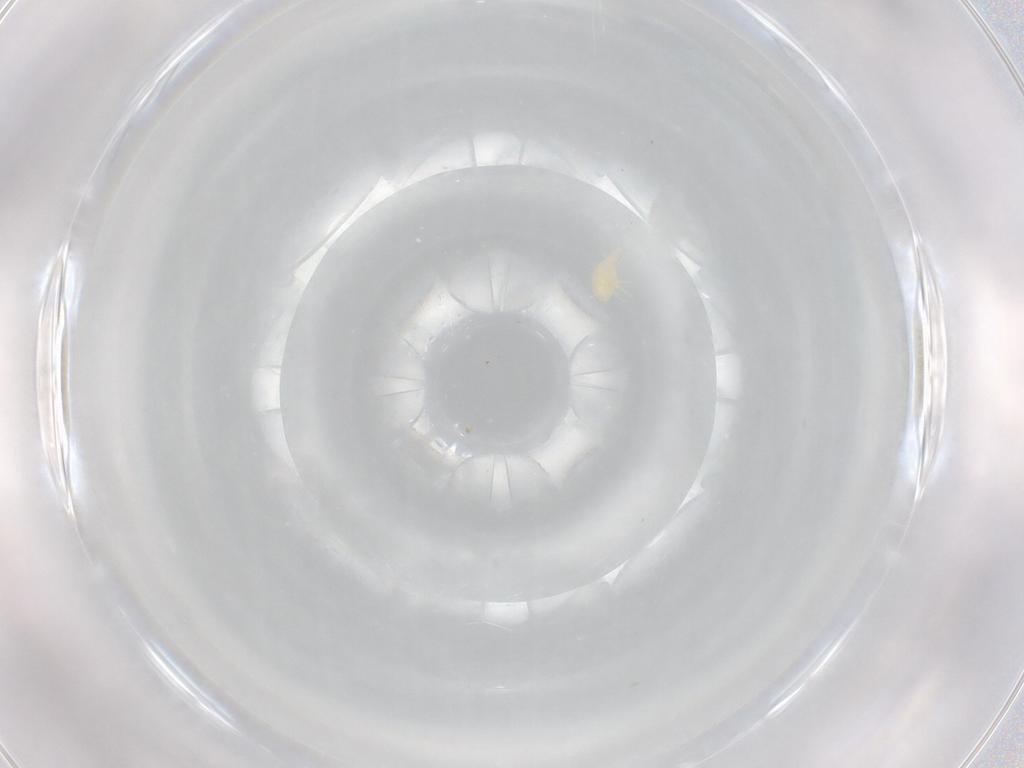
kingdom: Animalia
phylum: Arthropoda
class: Arachnida
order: Trombidiformes
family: Stigmaeidae
